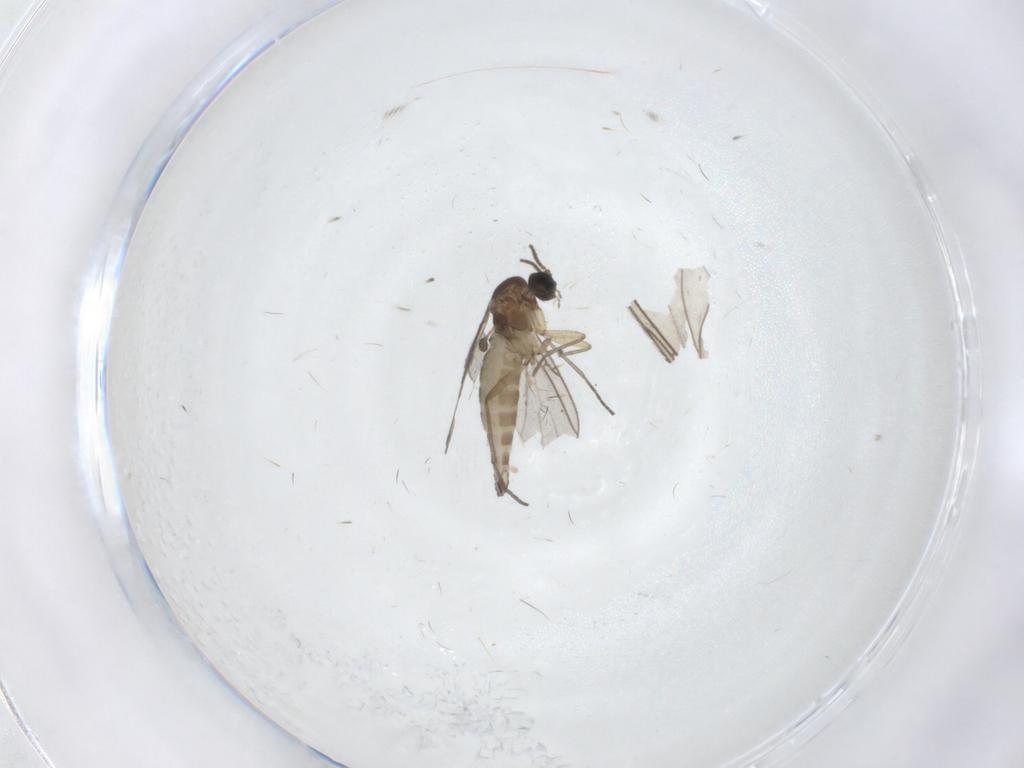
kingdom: Animalia
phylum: Arthropoda
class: Insecta
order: Diptera
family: Sciaridae
